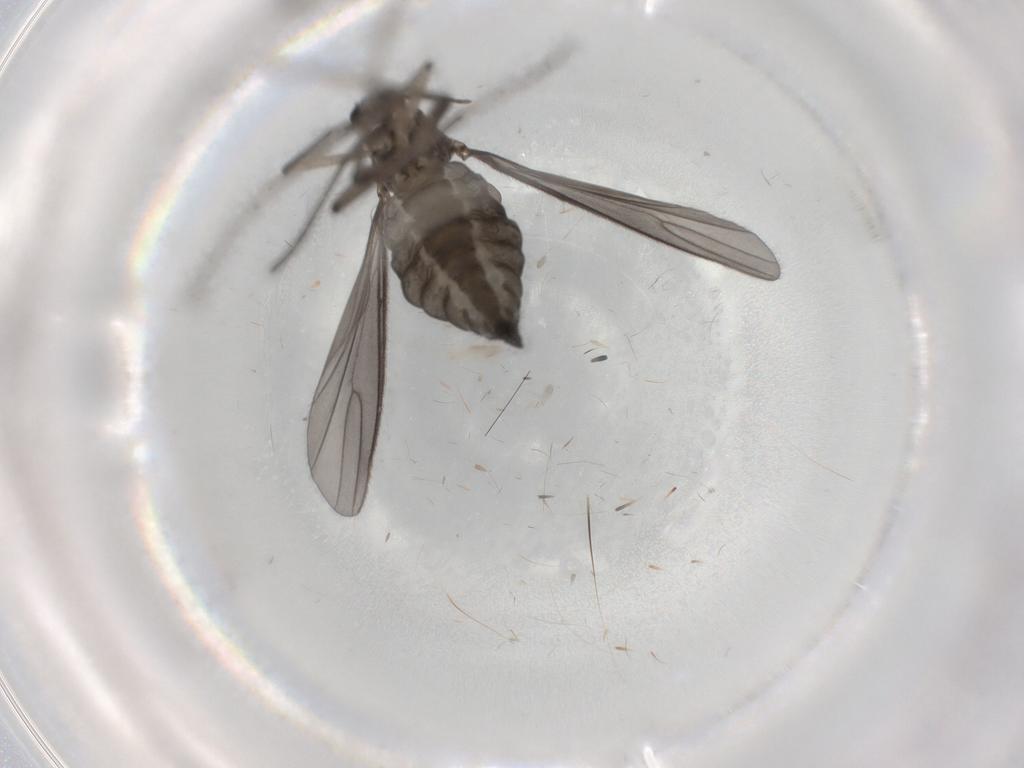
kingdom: Animalia
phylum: Arthropoda
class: Insecta
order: Diptera
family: Sciaridae
